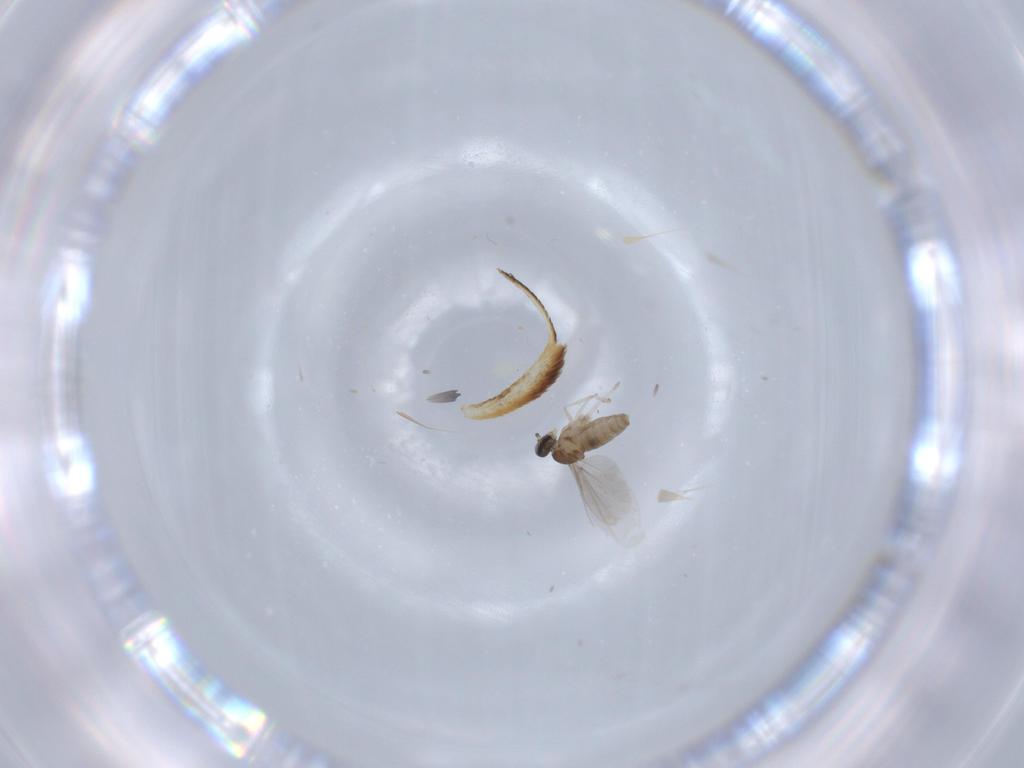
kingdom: Animalia
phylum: Arthropoda
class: Insecta
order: Diptera
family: Cecidomyiidae
